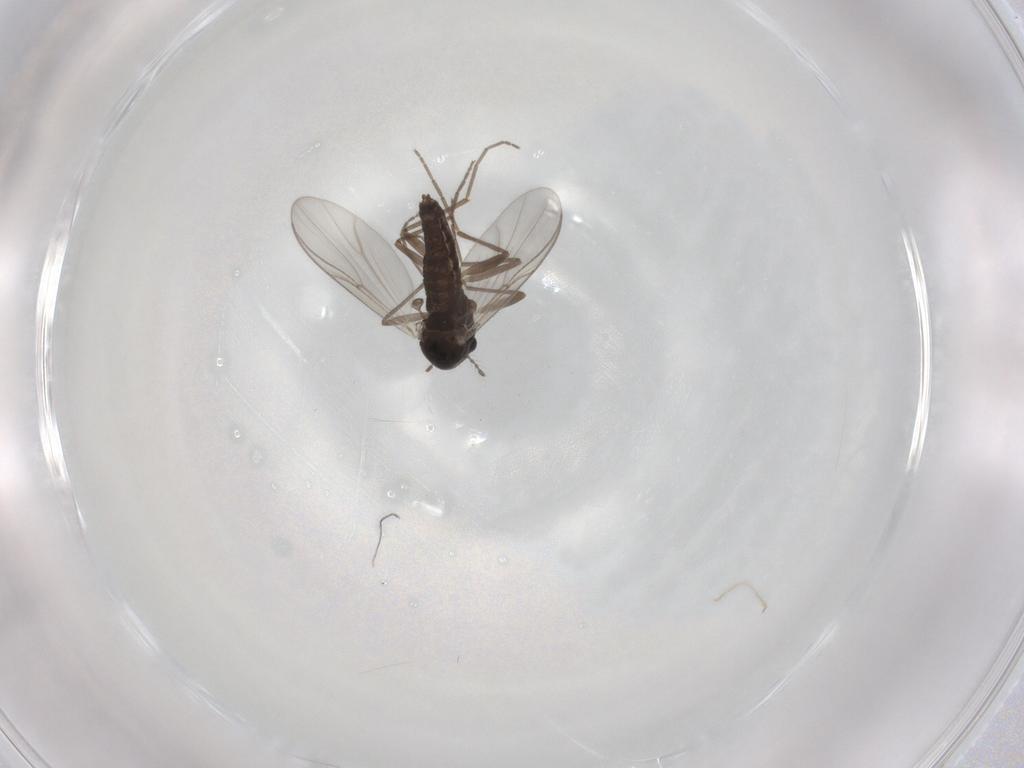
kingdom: Animalia
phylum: Arthropoda
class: Insecta
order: Diptera
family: Chironomidae
